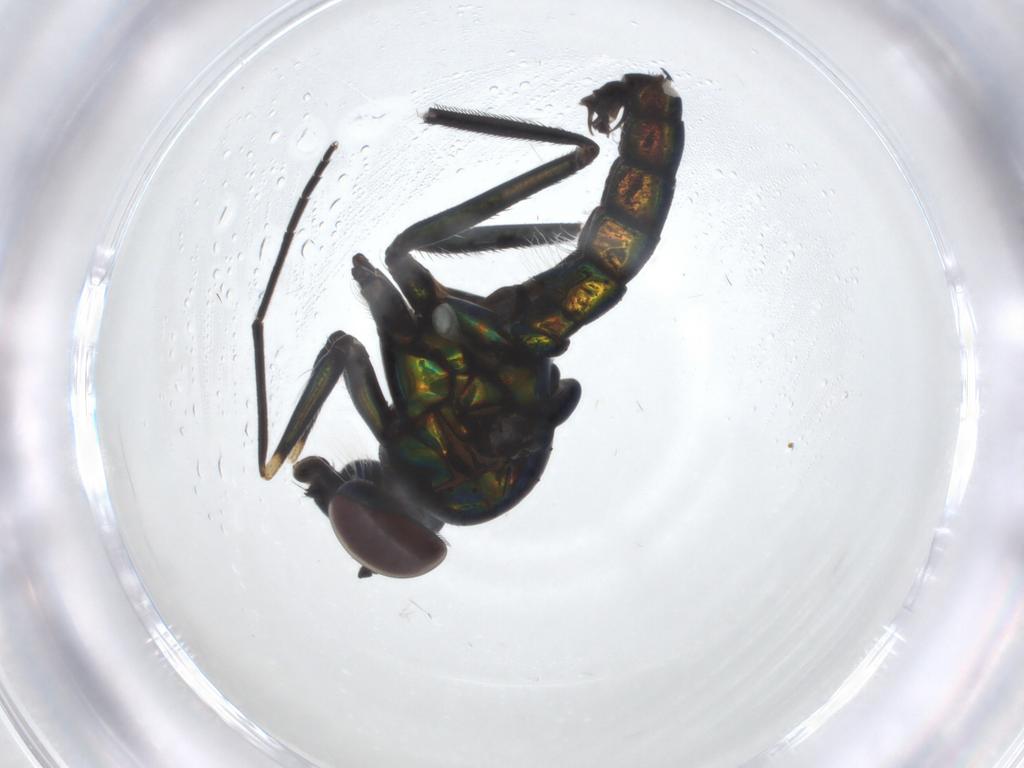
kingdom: Animalia
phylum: Arthropoda
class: Insecta
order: Diptera
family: Dolichopodidae
